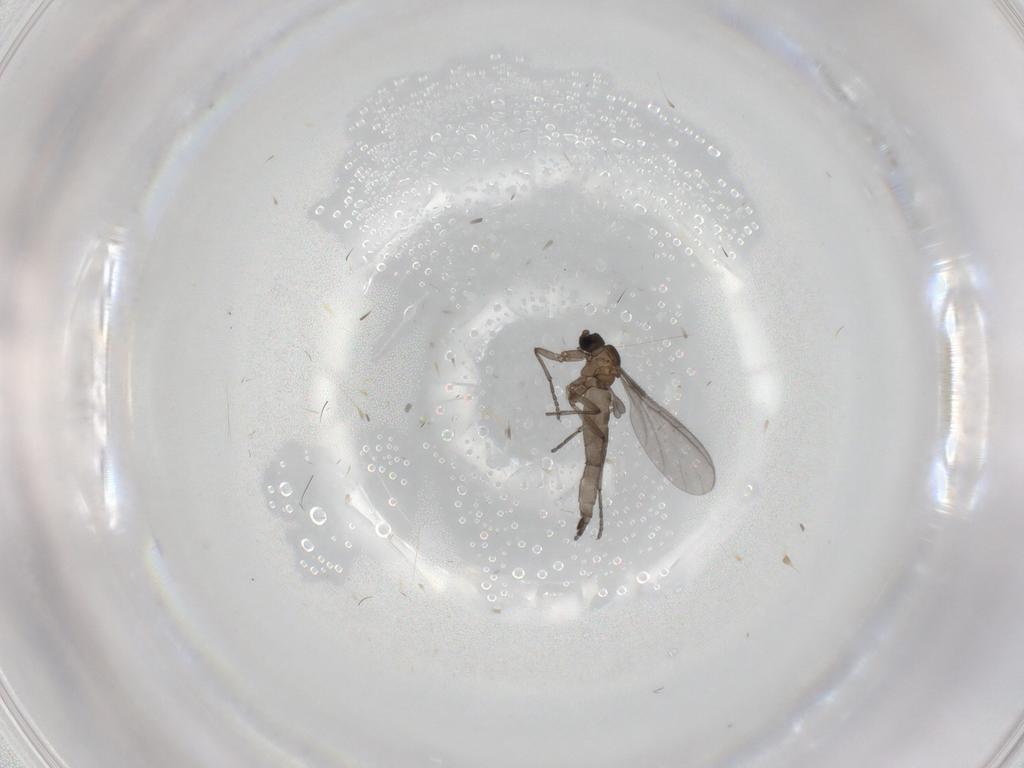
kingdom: Animalia
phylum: Arthropoda
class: Insecta
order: Diptera
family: Sciaridae
